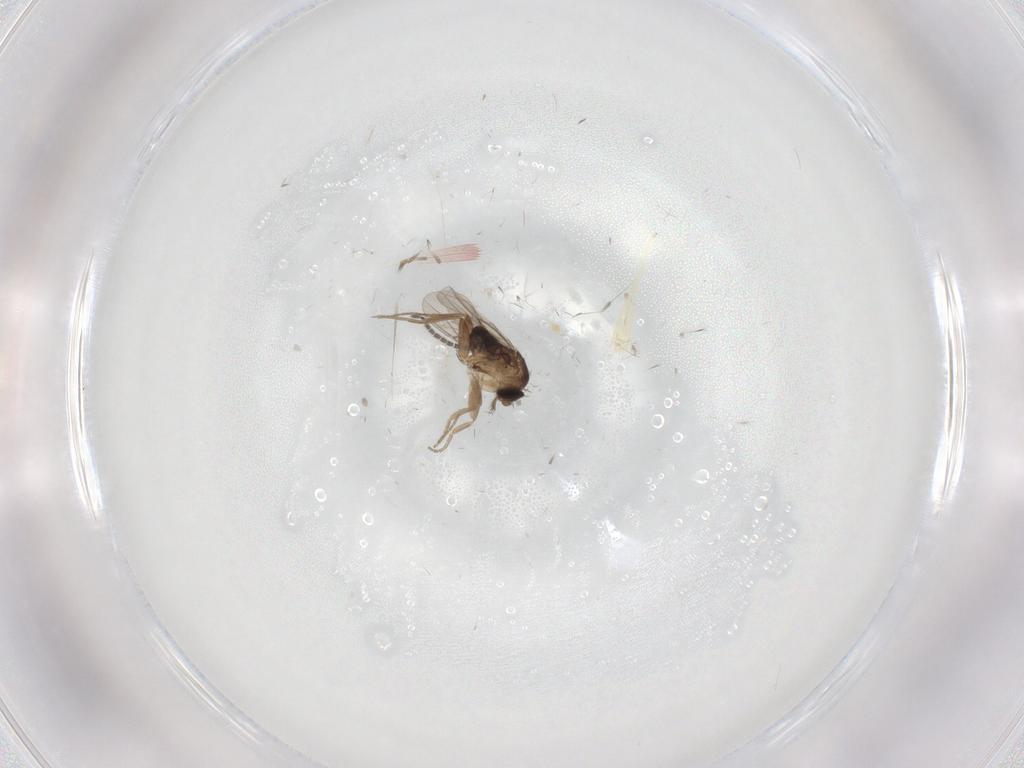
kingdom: Animalia
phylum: Arthropoda
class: Insecta
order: Diptera
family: Phoridae
